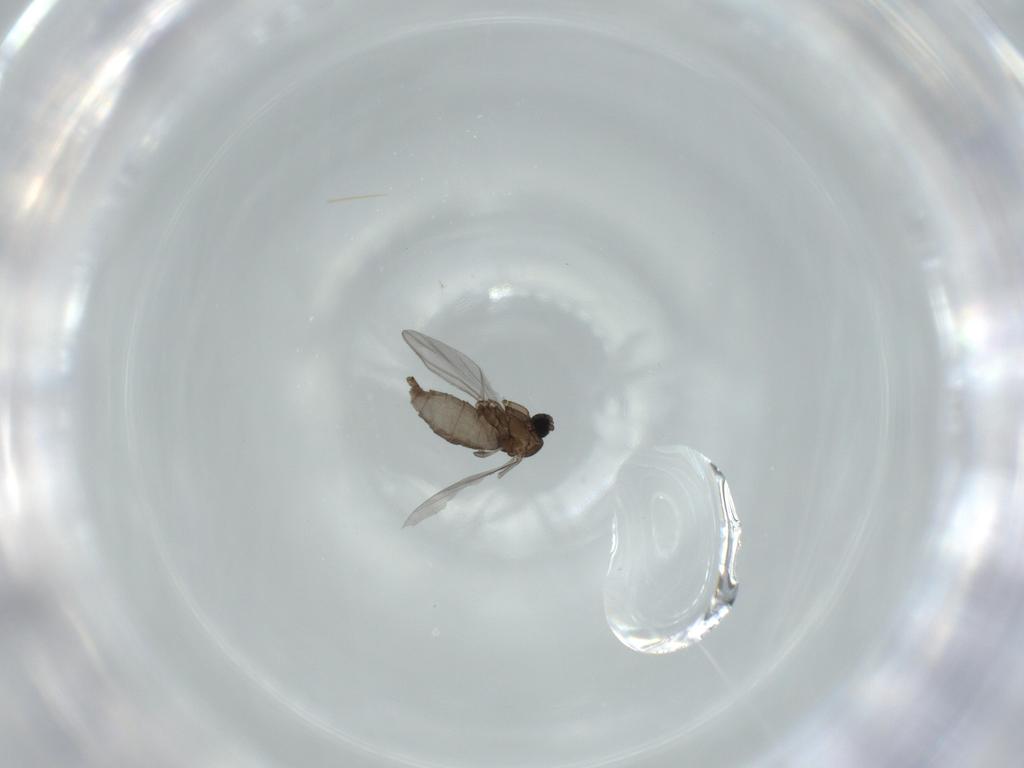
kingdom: Animalia
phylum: Arthropoda
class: Insecta
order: Diptera
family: Sciaridae
